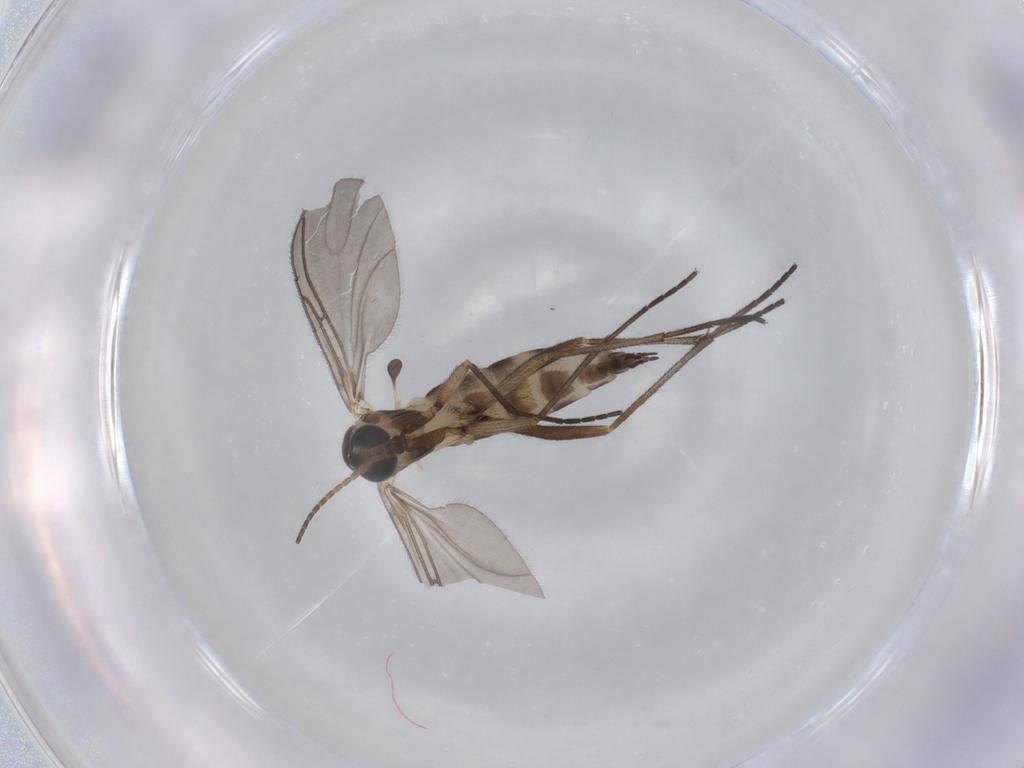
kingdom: Animalia
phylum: Arthropoda
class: Insecta
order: Diptera
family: Sciaridae
